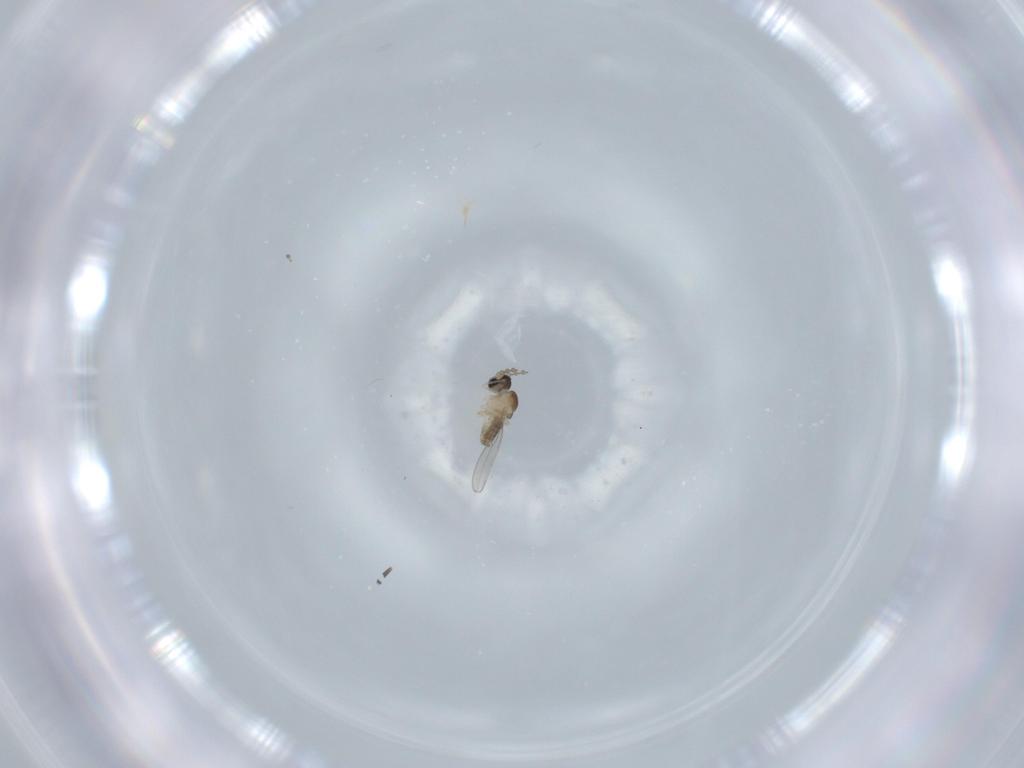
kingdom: Animalia
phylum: Arthropoda
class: Insecta
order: Diptera
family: Cecidomyiidae
